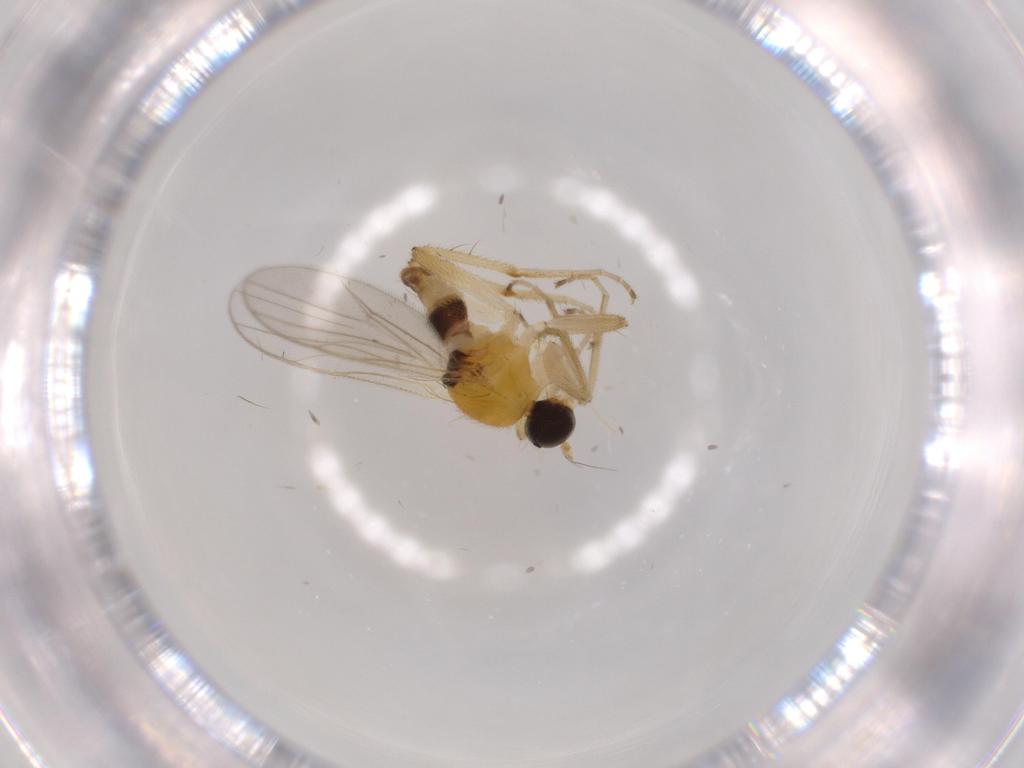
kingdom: Animalia
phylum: Arthropoda
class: Insecta
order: Diptera
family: Hybotidae
